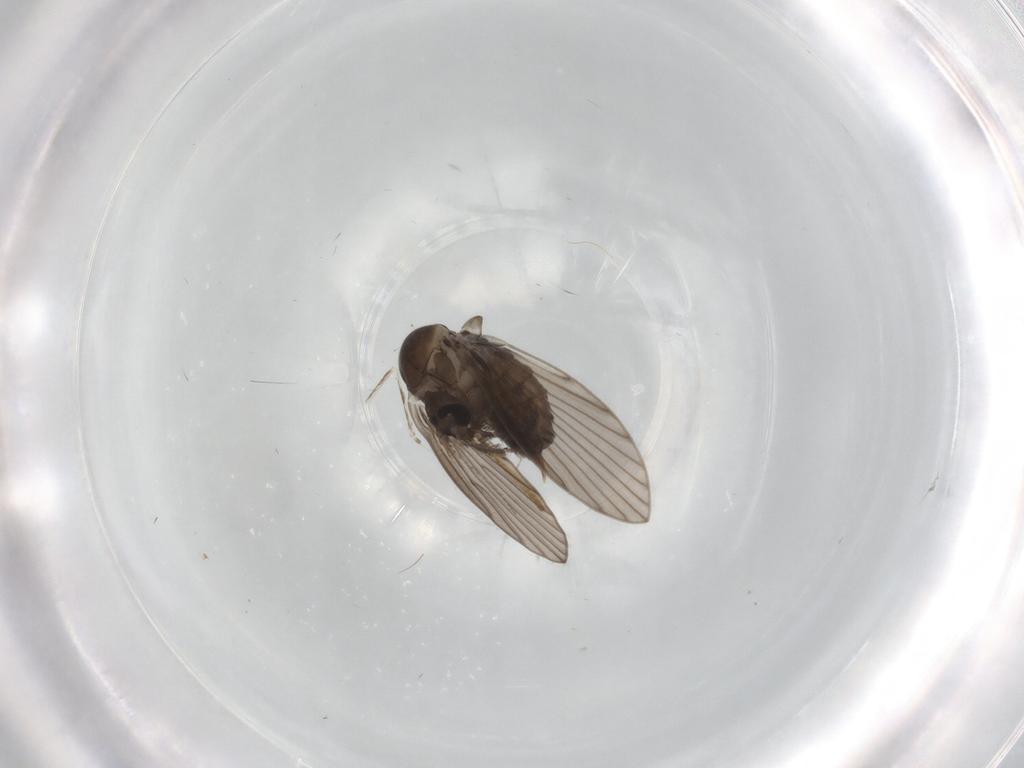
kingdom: Animalia
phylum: Arthropoda
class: Insecta
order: Diptera
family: Psychodidae
